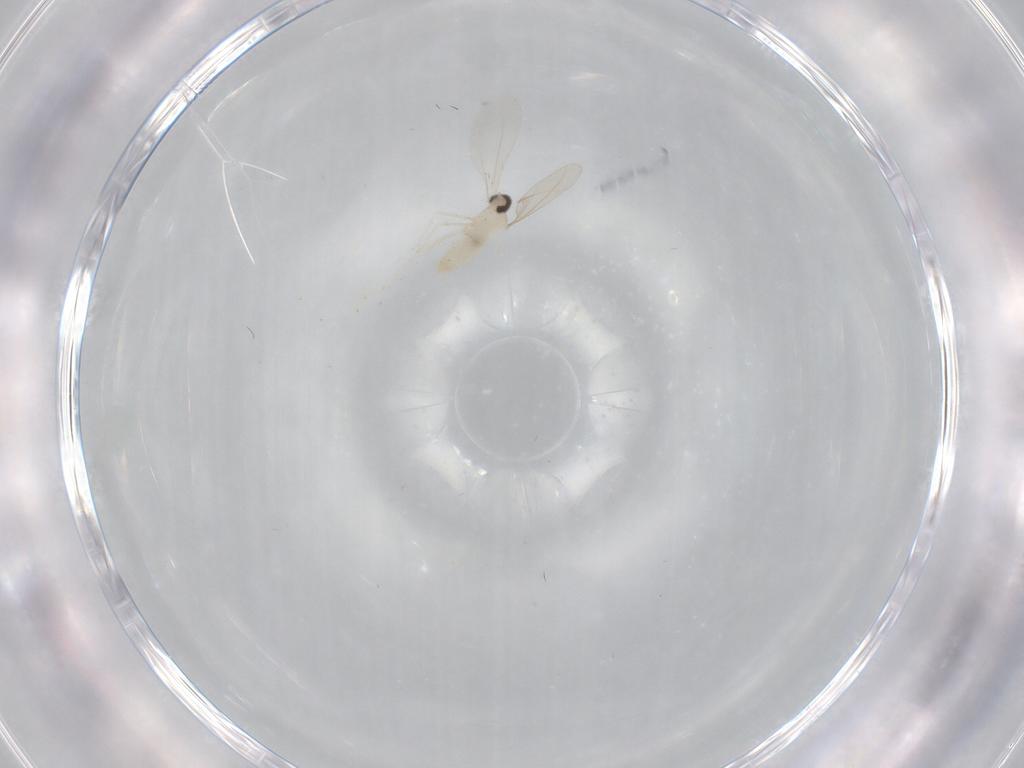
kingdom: Animalia
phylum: Arthropoda
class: Insecta
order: Diptera
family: Cecidomyiidae
